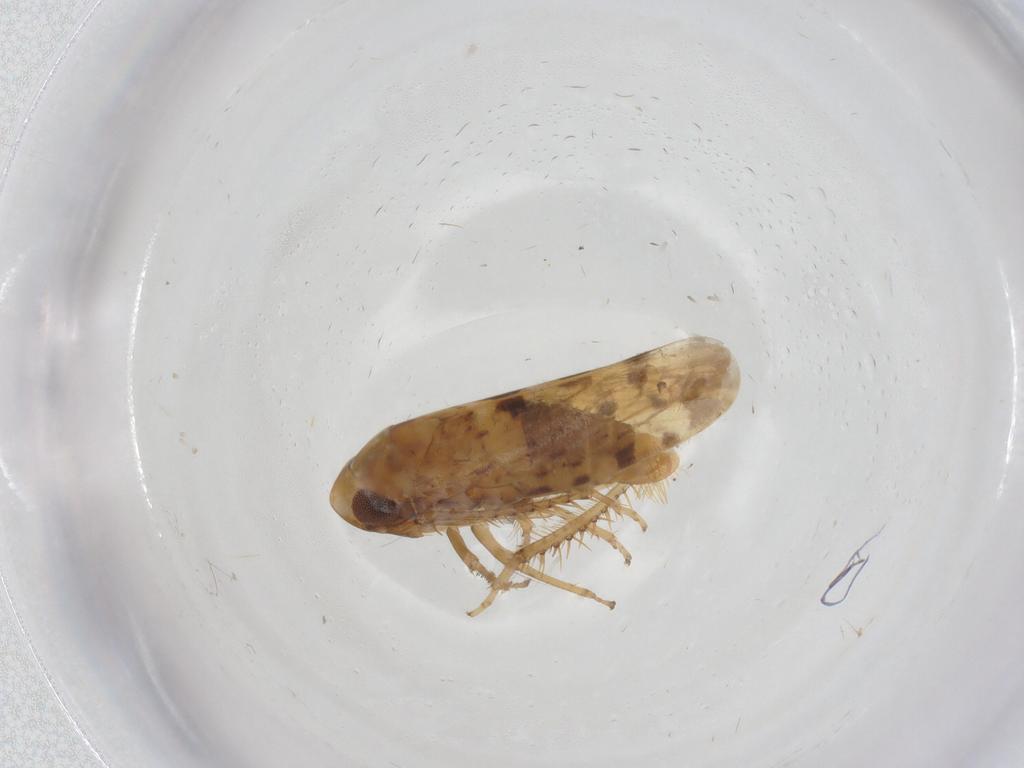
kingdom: Animalia
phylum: Arthropoda
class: Insecta
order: Hemiptera
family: Cicadellidae
